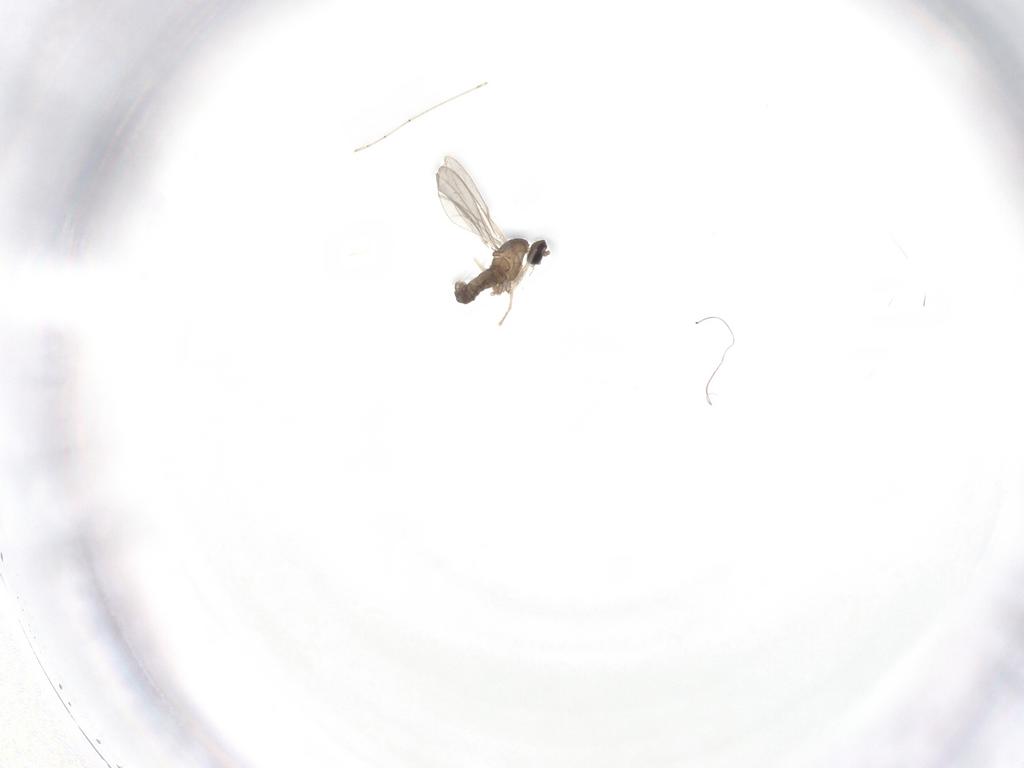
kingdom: Animalia
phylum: Arthropoda
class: Insecta
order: Diptera
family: Cecidomyiidae
